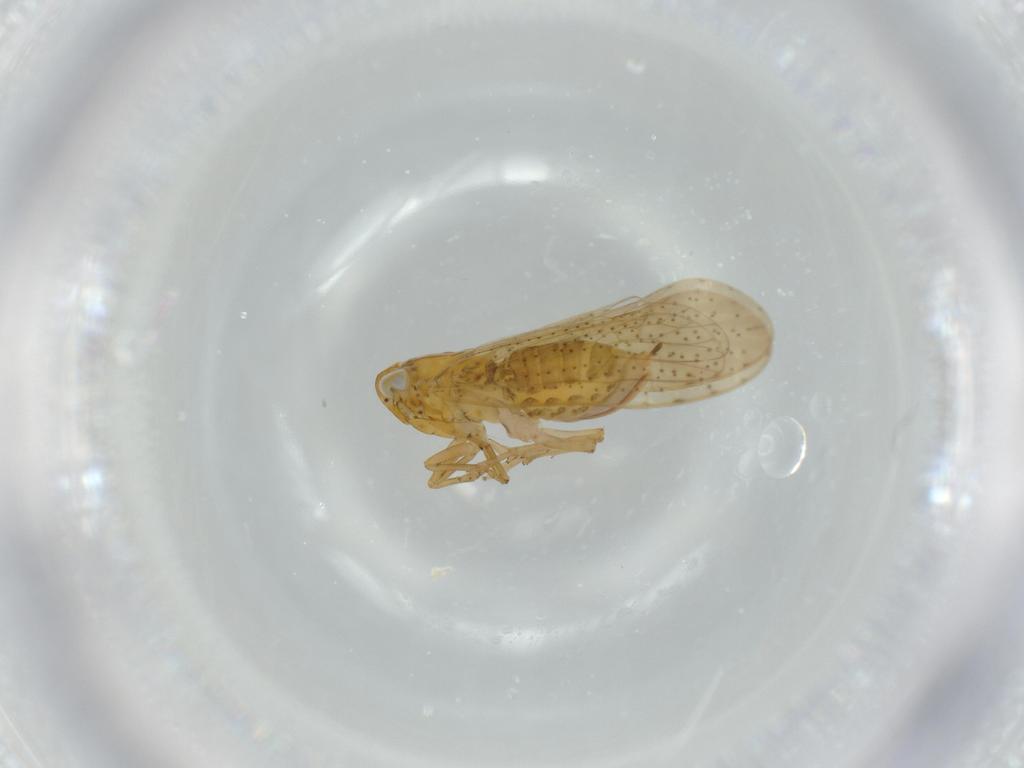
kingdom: Animalia
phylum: Arthropoda
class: Insecta
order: Hemiptera
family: Delphacidae
